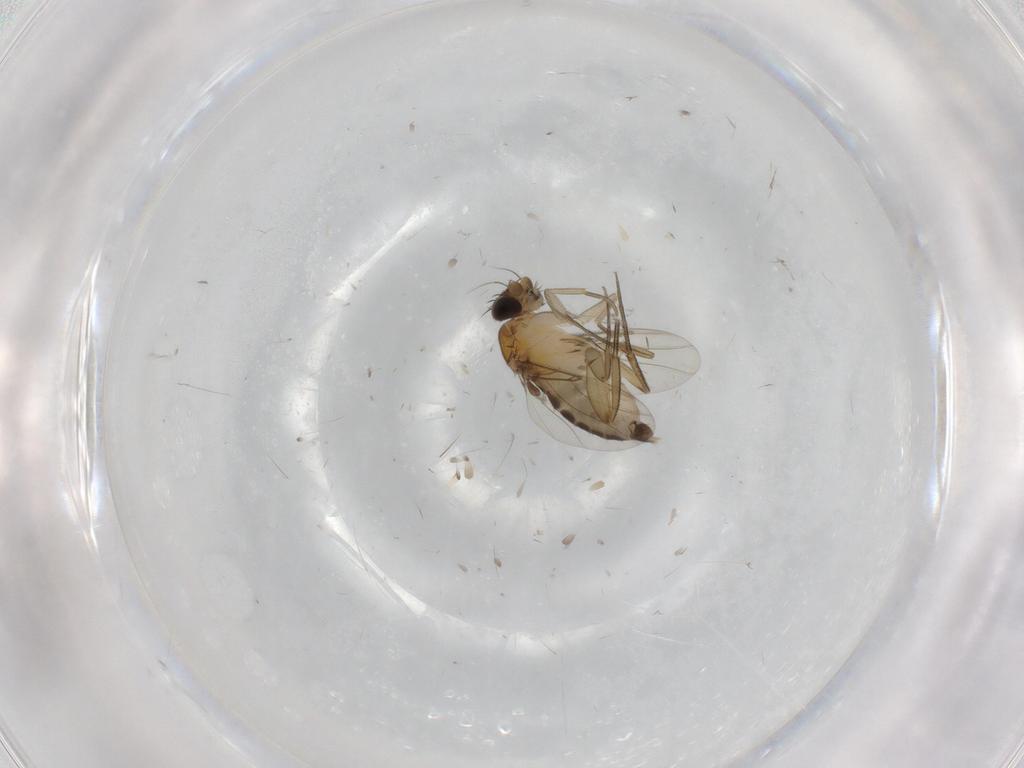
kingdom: Animalia
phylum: Arthropoda
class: Insecta
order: Diptera
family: Phoridae
